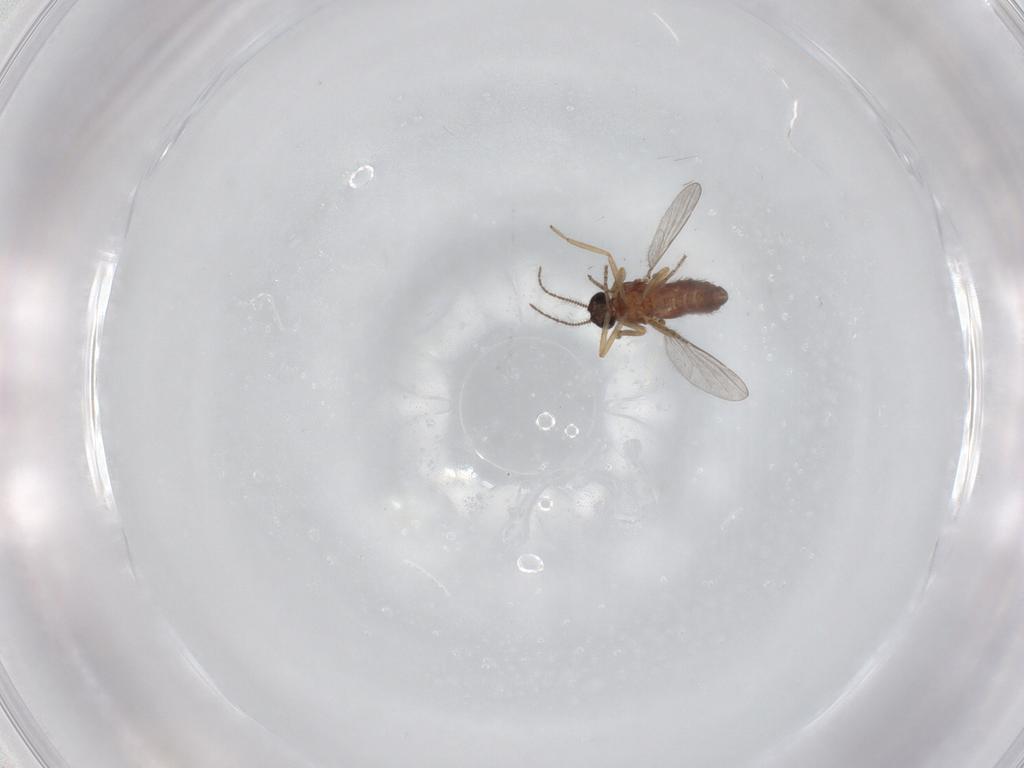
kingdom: Animalia
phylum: Arthropoda
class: Insecta
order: Diptera
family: Ceratopogonidae
